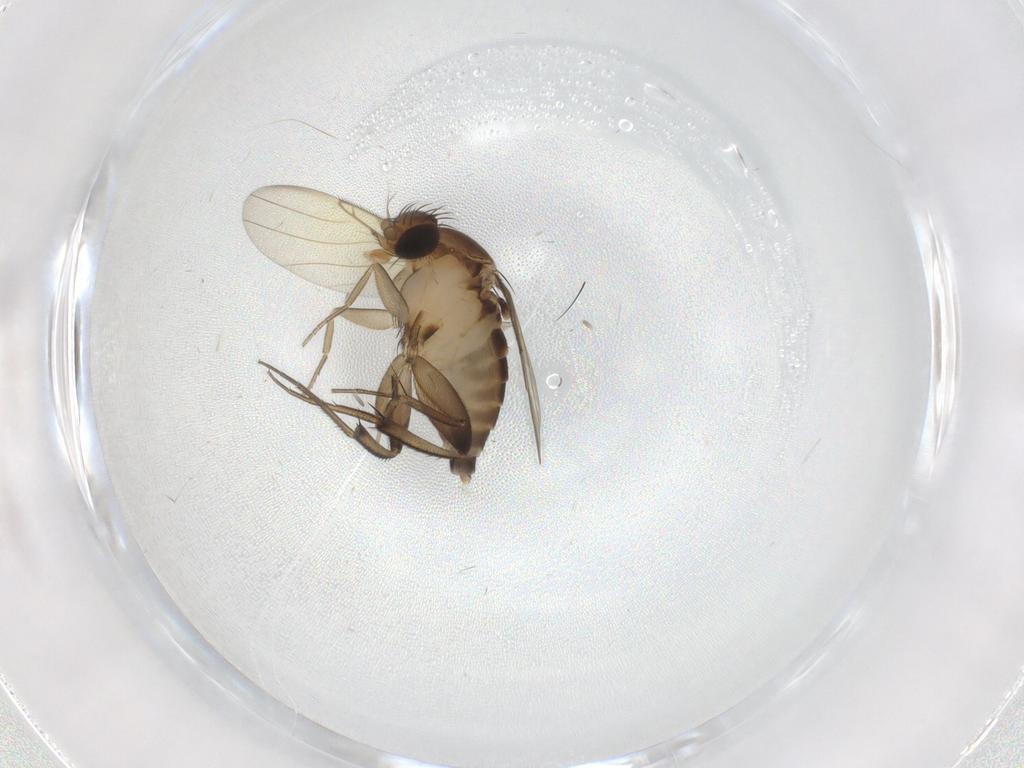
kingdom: Animalia
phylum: Arthropoda
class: Insecta
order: Diptera
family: Phoridae
